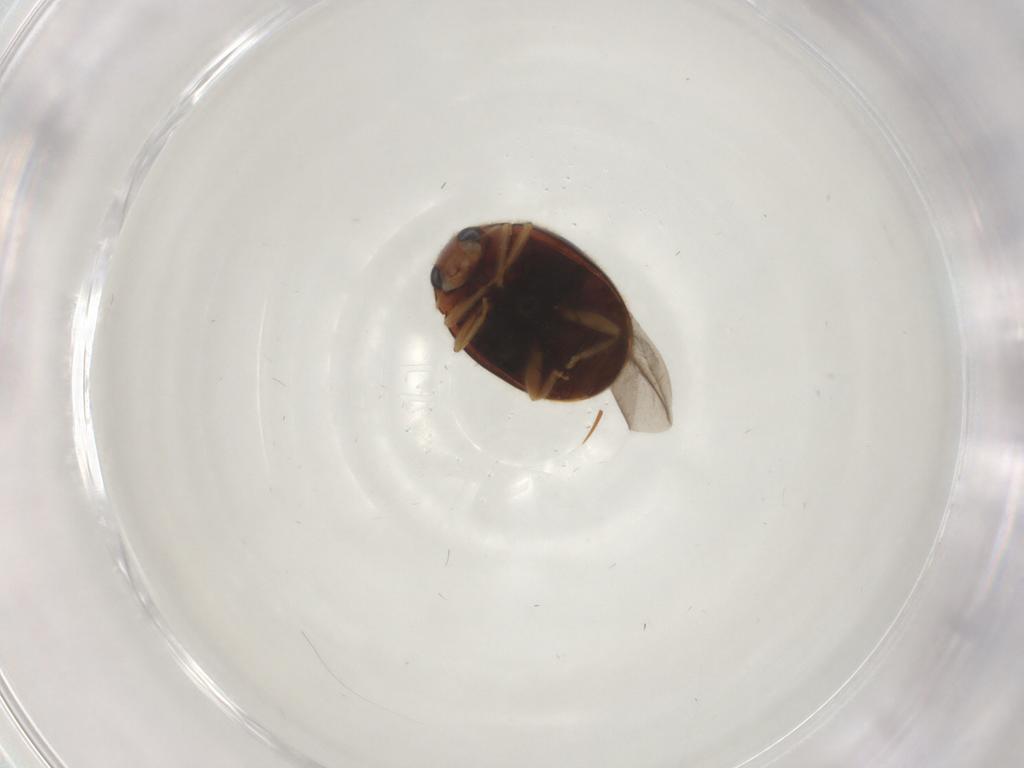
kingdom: Animalia
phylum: Arthropoda
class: Insecta
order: Coleoptera
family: Coccinellidae
